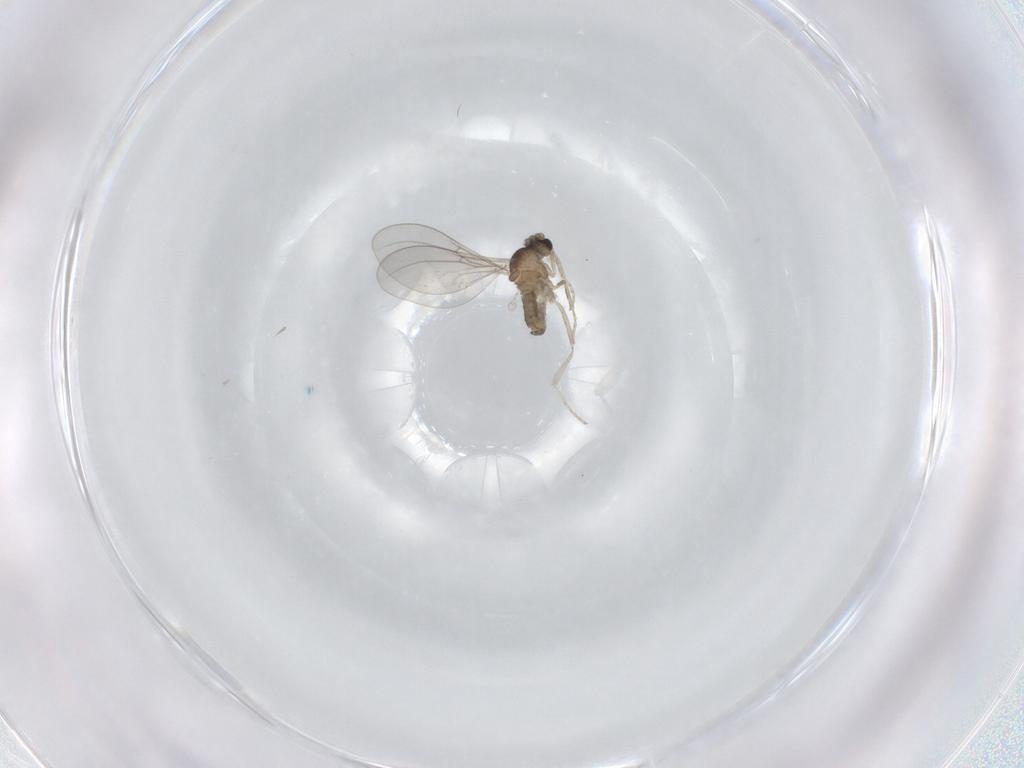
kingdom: Animalia
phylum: Arthropoda
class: Insecta
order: Diptera
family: Cecidomyiidae
